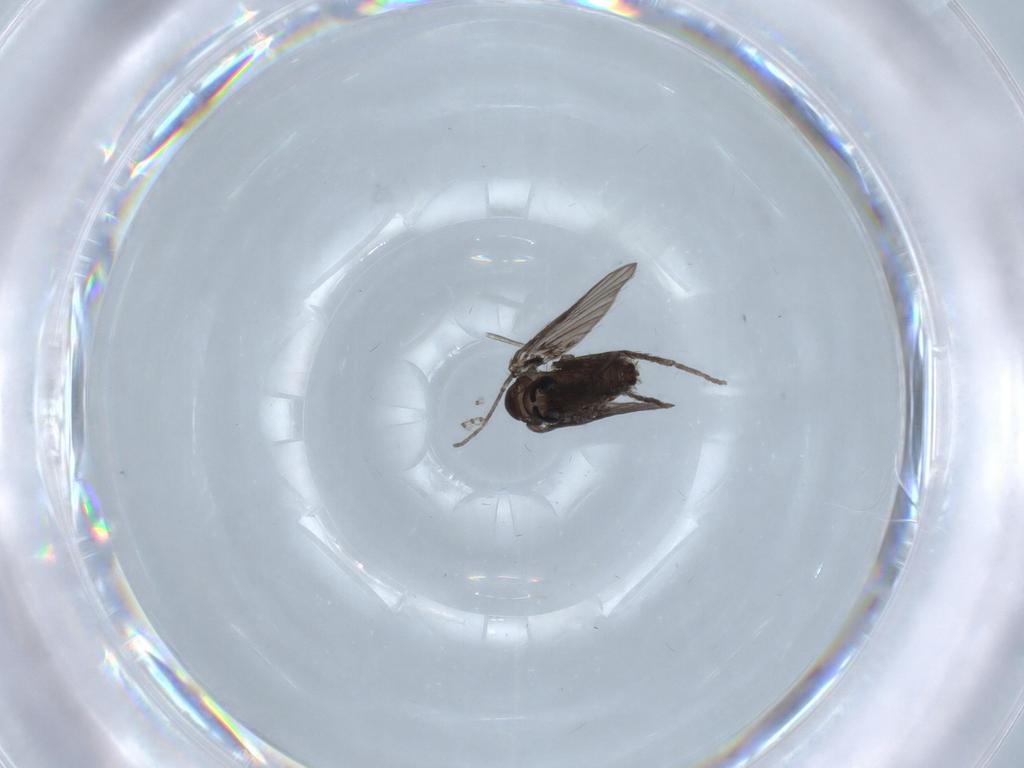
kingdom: Animalia
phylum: Arthropoda
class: Insecta
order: Diptera
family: Cecidomyiidae
